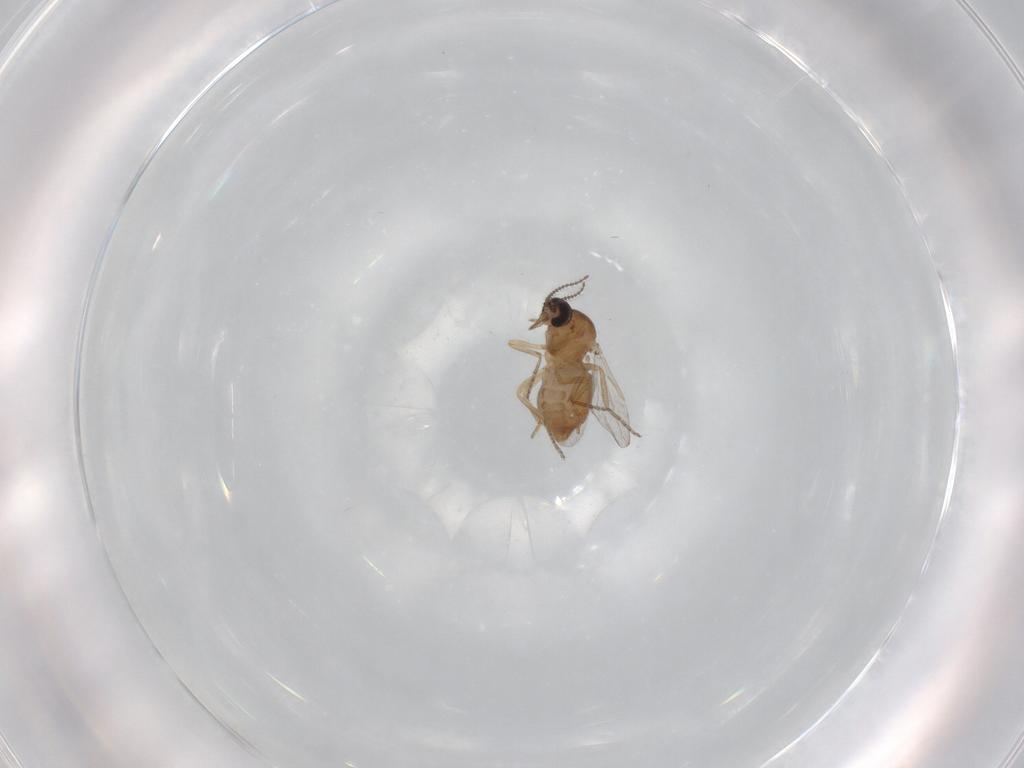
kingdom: Animalia
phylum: Arthropoda
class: Insecta
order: Diptera
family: Ceratopogonidae
